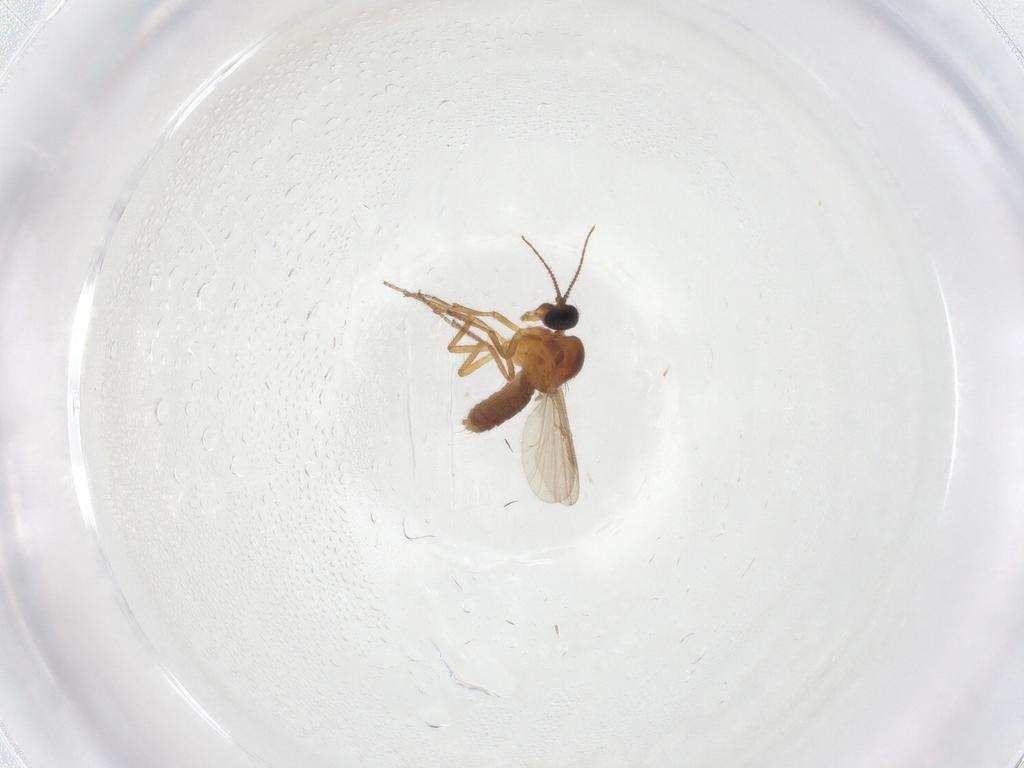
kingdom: Animalia
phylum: Arthropoda
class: Insecta
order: Diptera
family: Ceratopogonidae
